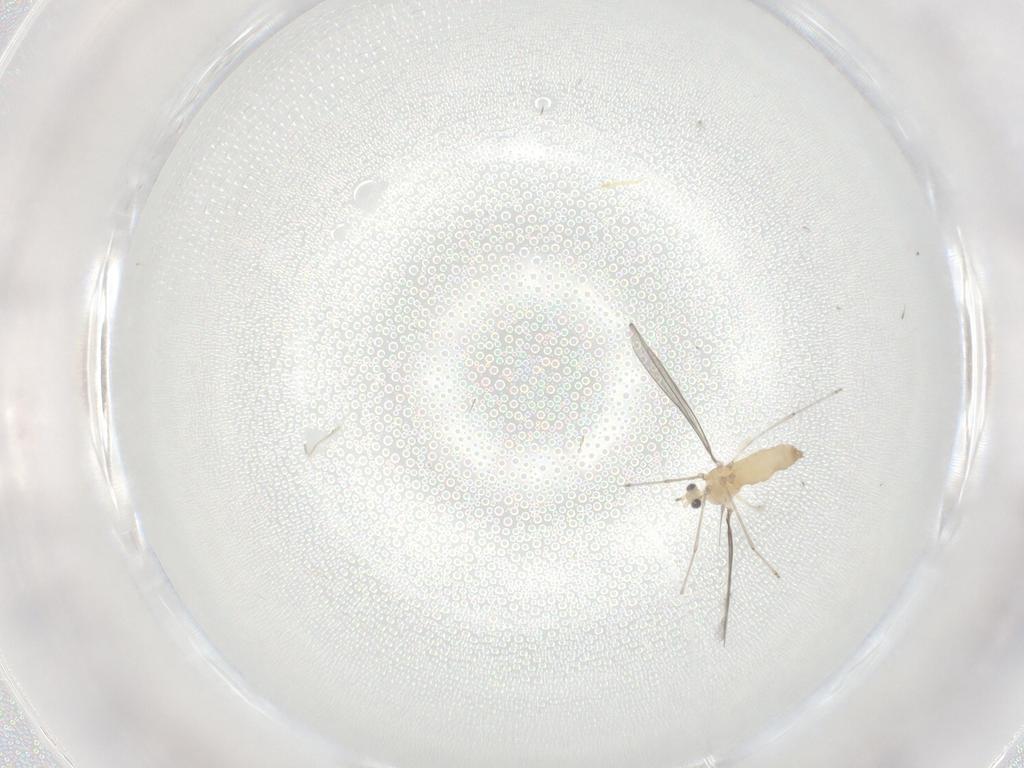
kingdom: Animalia
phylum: Arthropoda
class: Insecta
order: Diptera
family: Cecidomyiidae
